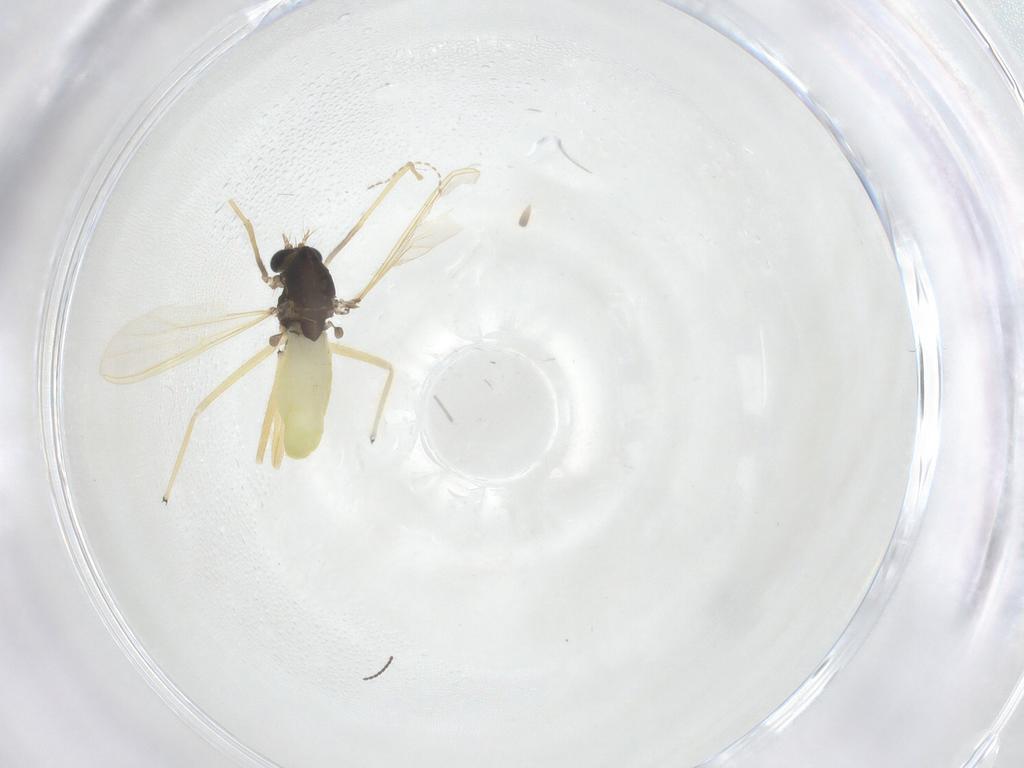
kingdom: Animalia
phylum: Arthropoda
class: Insecta
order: Diptera
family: Chironomidae
